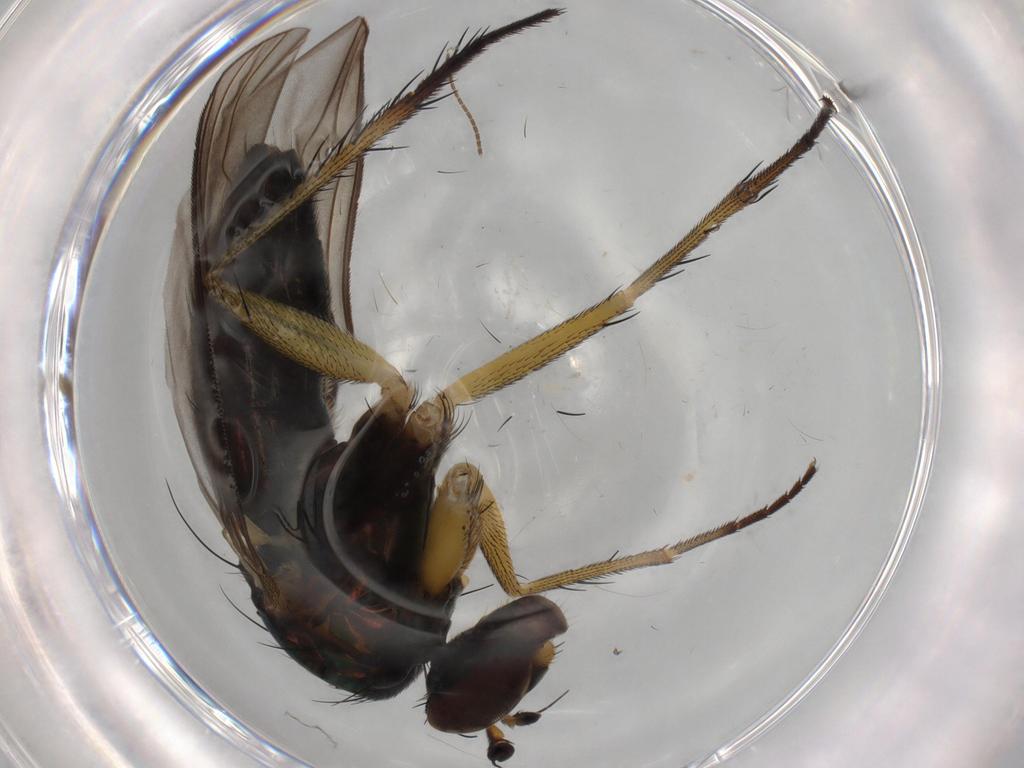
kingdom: Animalia
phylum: Arthropoda
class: Insecta
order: Diptera
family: Dolichopodidae
